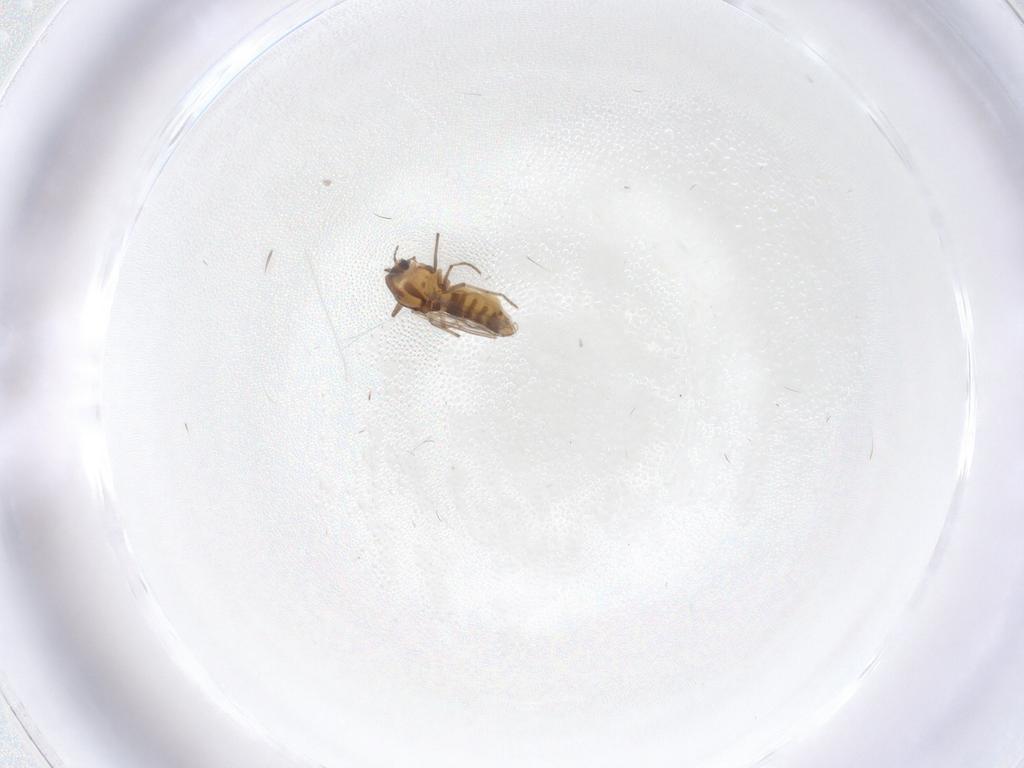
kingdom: Animalia
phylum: Arthropoda
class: Insecta
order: Diptera
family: Chironomidae
